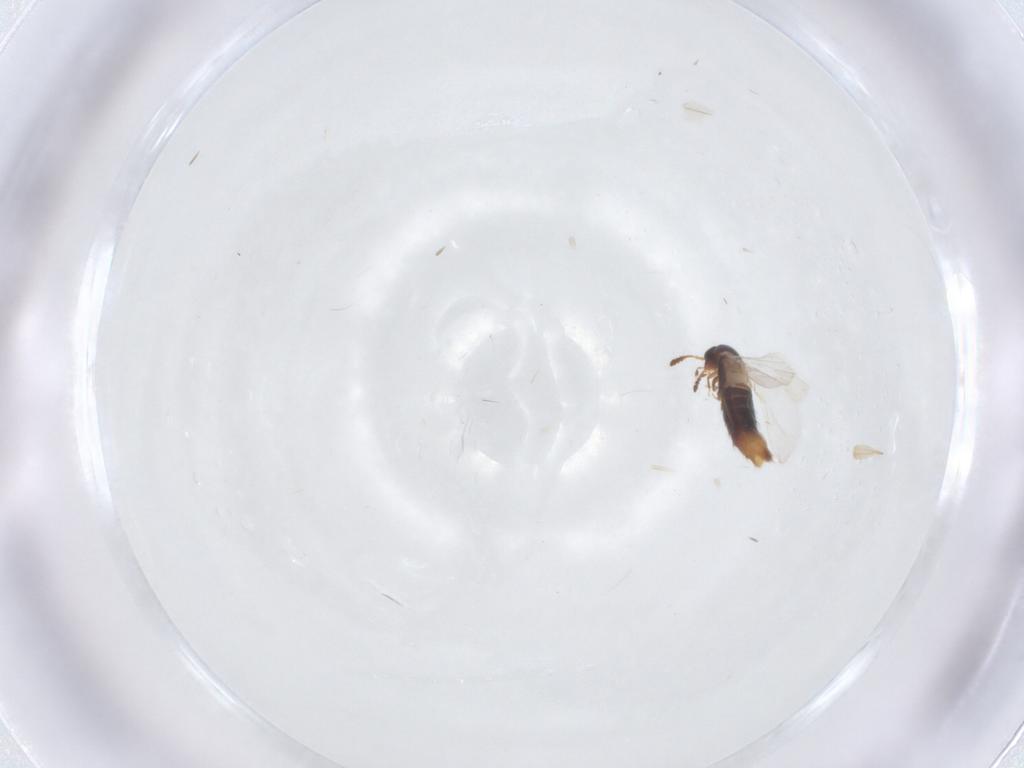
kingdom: Animalia
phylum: Arthropoda
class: Insecta
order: Coleoptera
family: Staphylinidae
